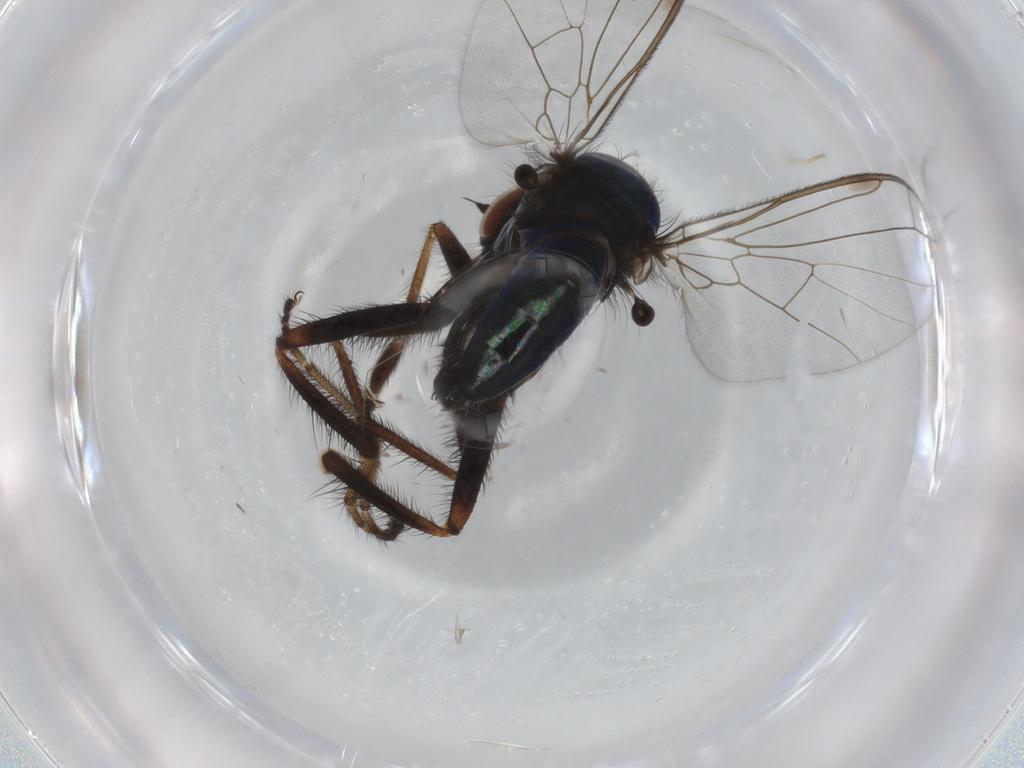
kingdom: Animalia
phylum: Arthropoda
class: Insecta
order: Diptera
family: Empididae
